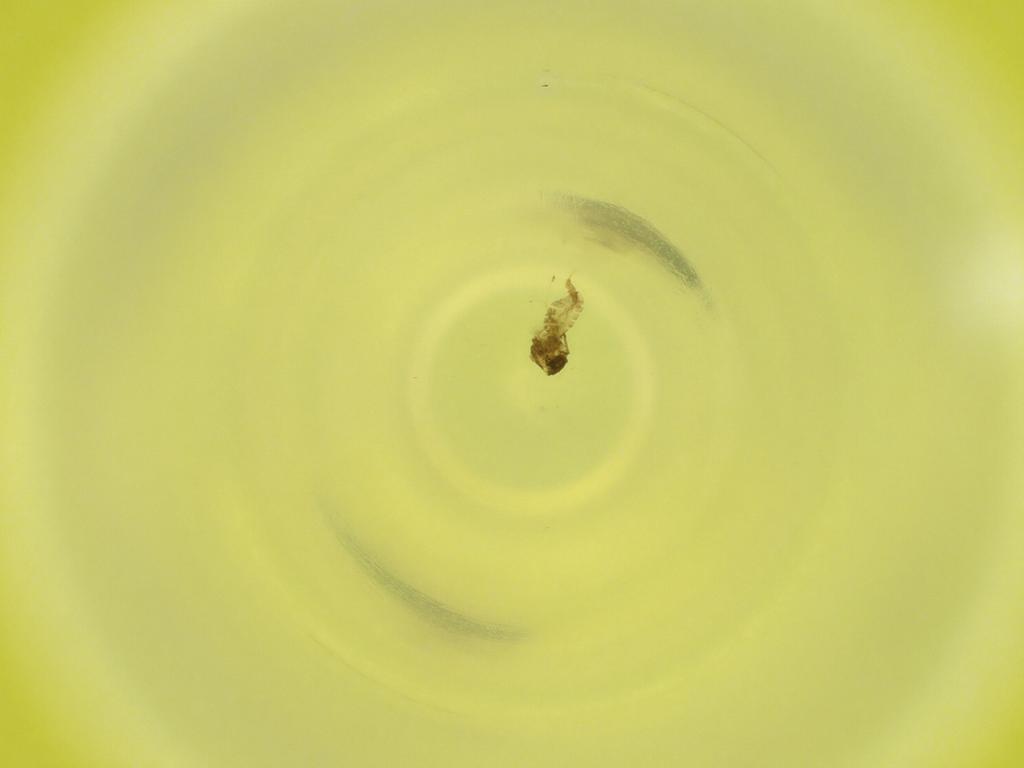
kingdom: Animalia
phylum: Arthropoda
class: Insecta
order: Diptera
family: Cecidomyiidae
